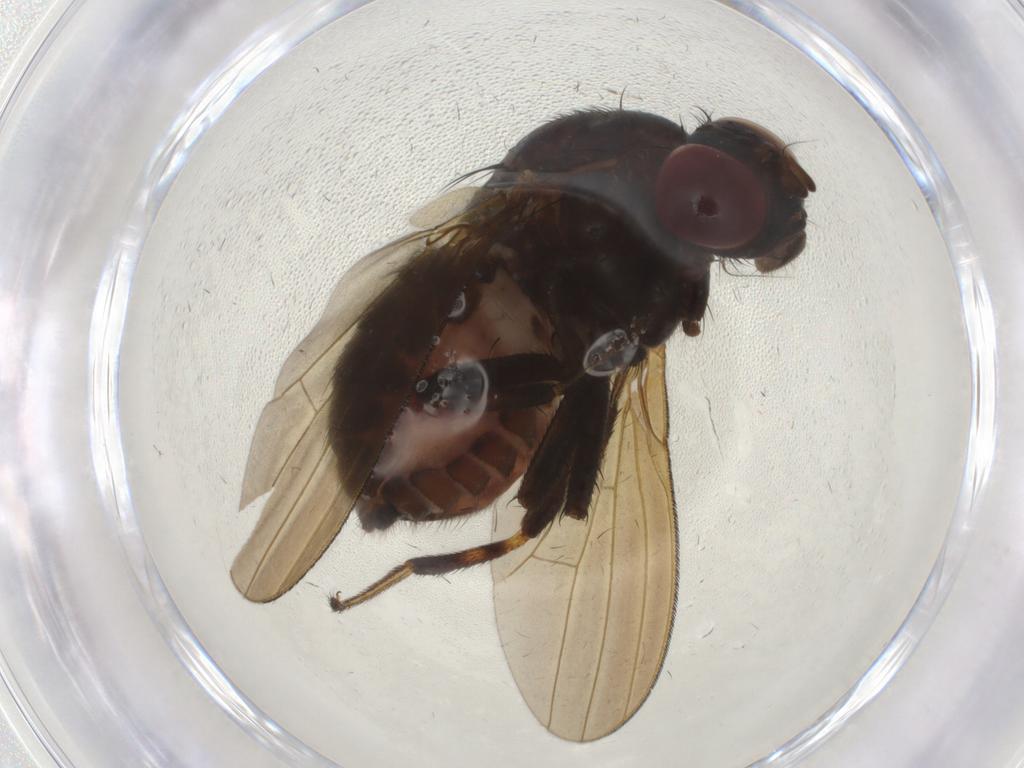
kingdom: Animalia
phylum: Arthropoda
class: Insecta
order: Diptera
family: Lauxaniidae
